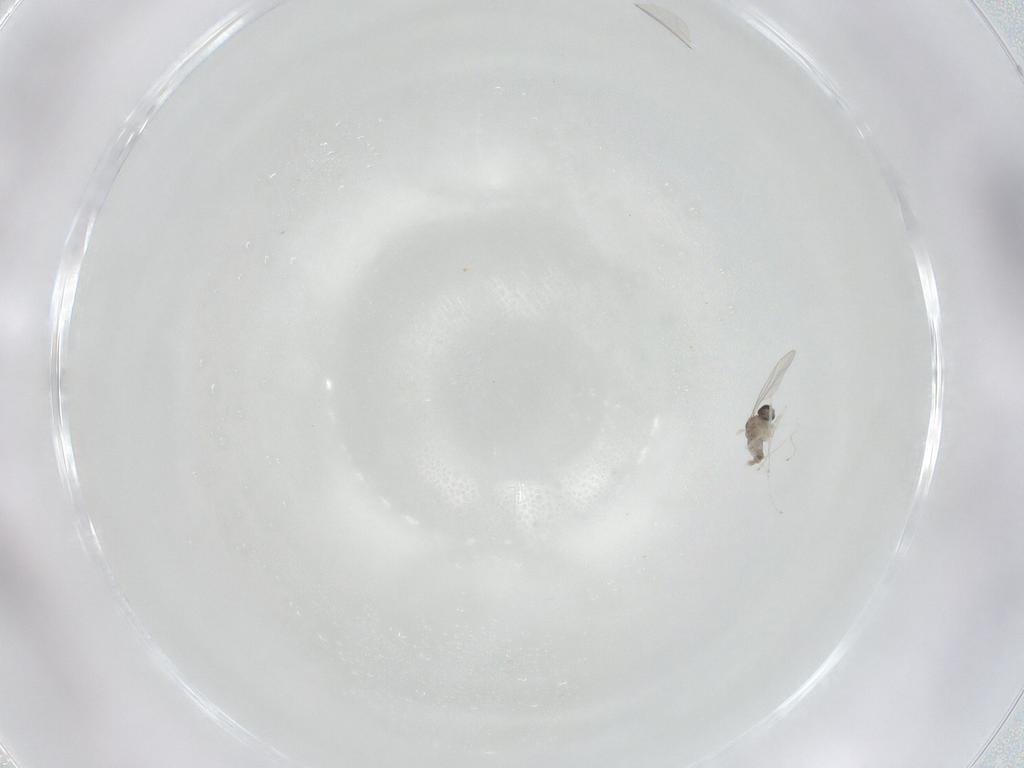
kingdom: Animalia
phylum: Arthropoda
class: Insecta
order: Diptera
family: Cecidomyiidae
